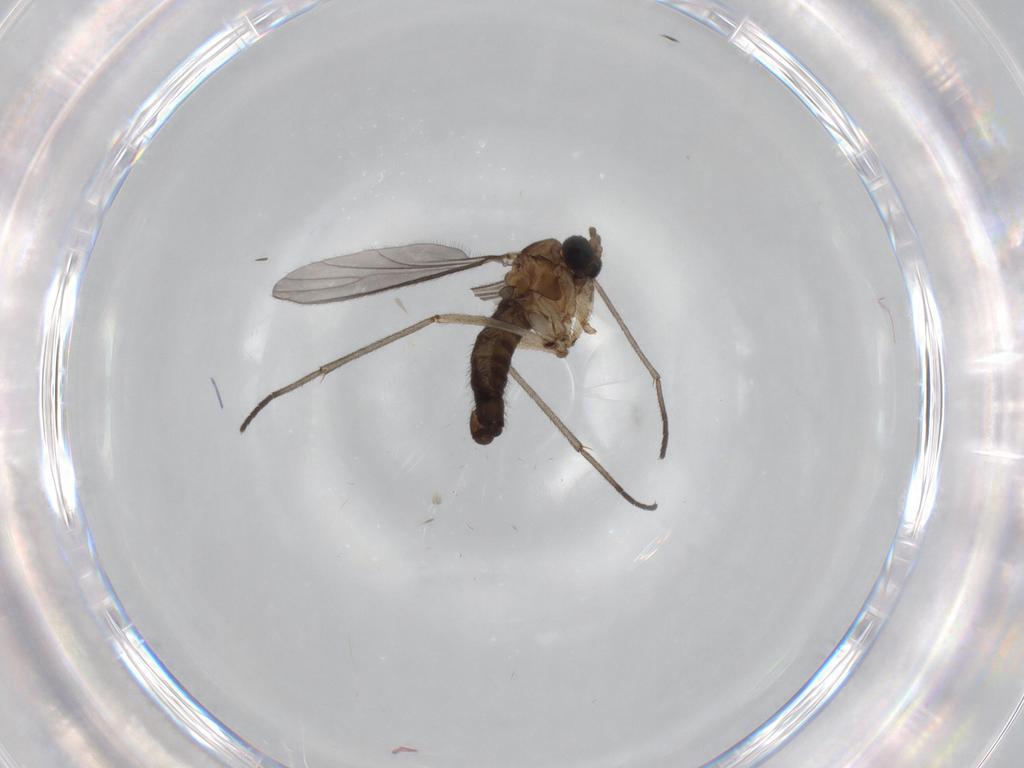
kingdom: Animalia
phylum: Arthropoda
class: Insecta
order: Diptera
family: Sciaridae
